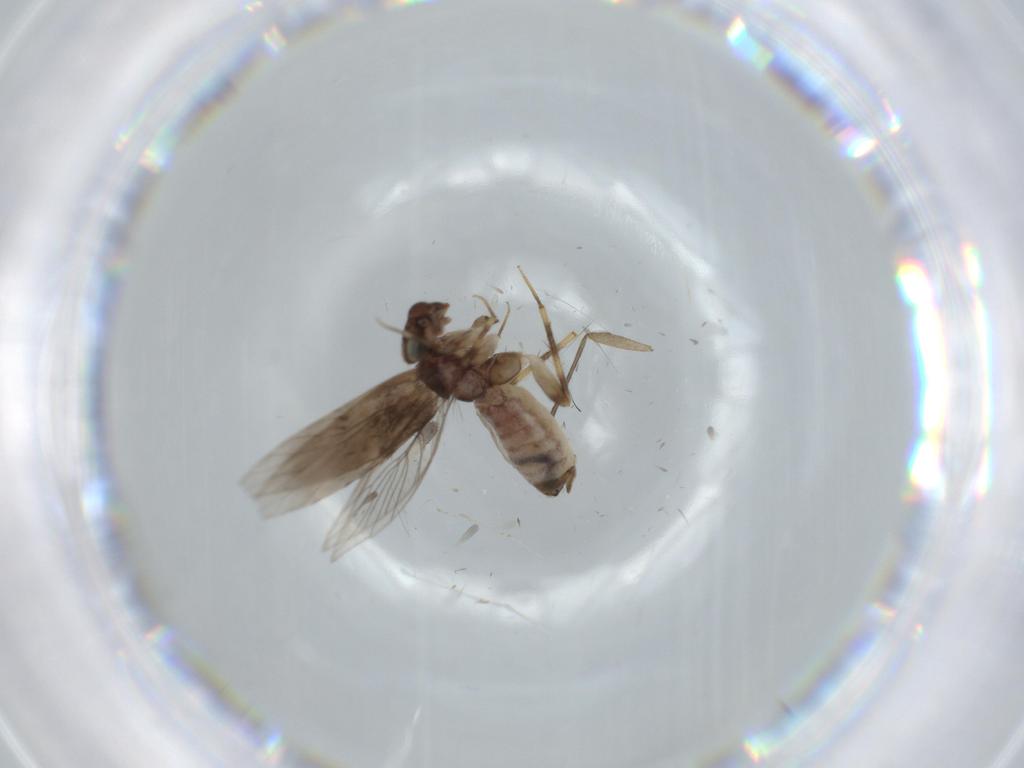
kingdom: Animalia
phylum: Arthropoda
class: Insecta
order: Psocodea
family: Lepidopsocidae
